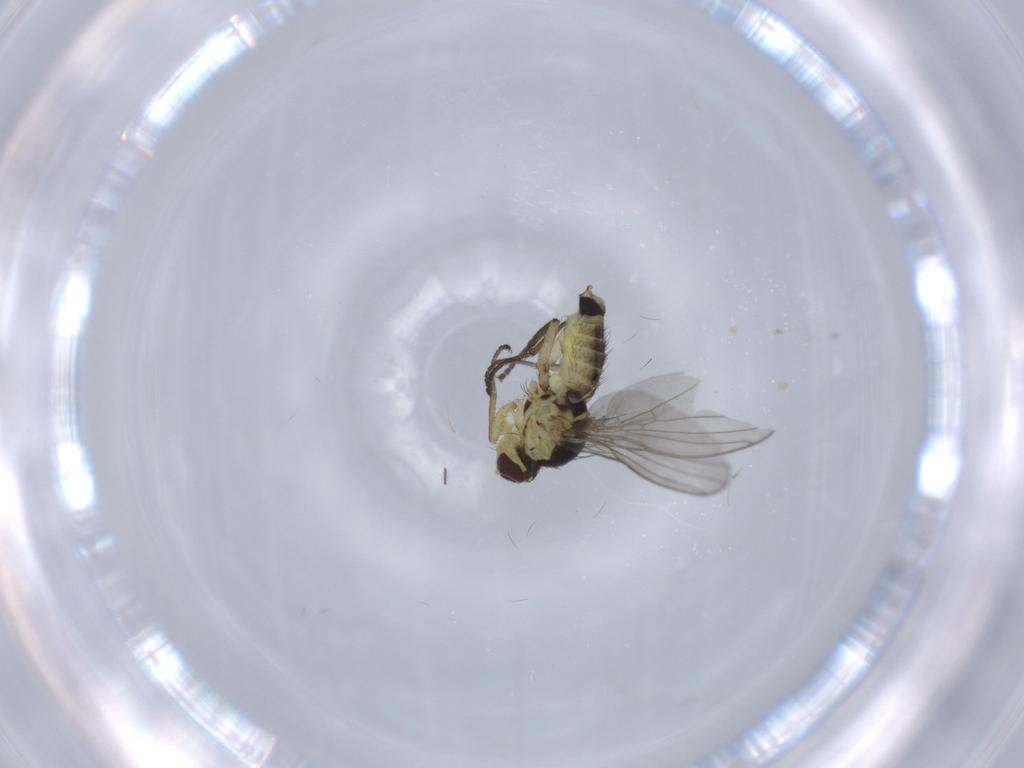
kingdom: Animalia
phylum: Arthropoda
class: Insecta
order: Diptera
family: Agromyzidae
